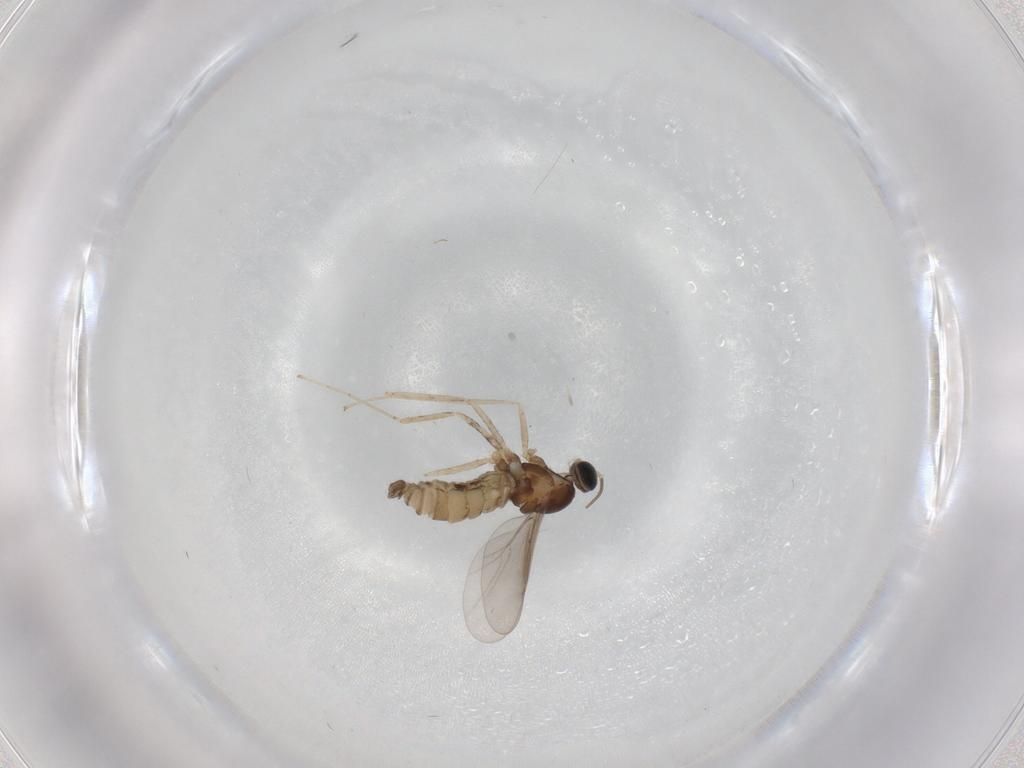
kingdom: Animalia
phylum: Arthropoda
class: Insecta
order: Diptera
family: Cecidomyiidae
